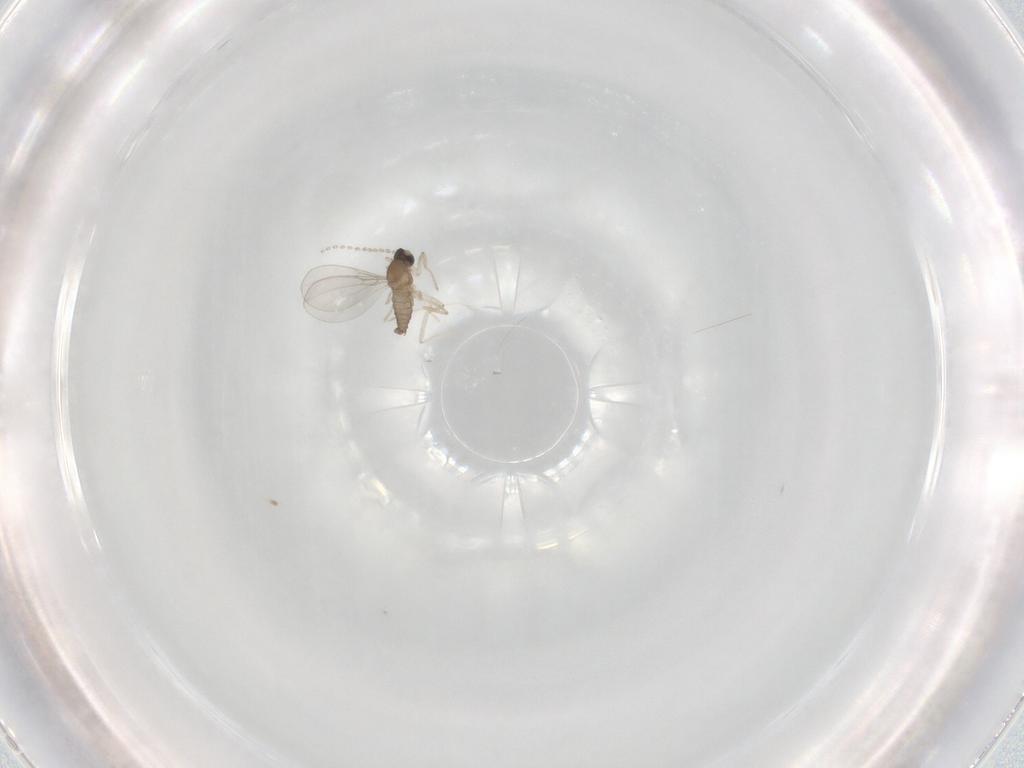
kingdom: Animalia
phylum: Arthropoda
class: Insecta
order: Diptera
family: Cecidomyiidae
